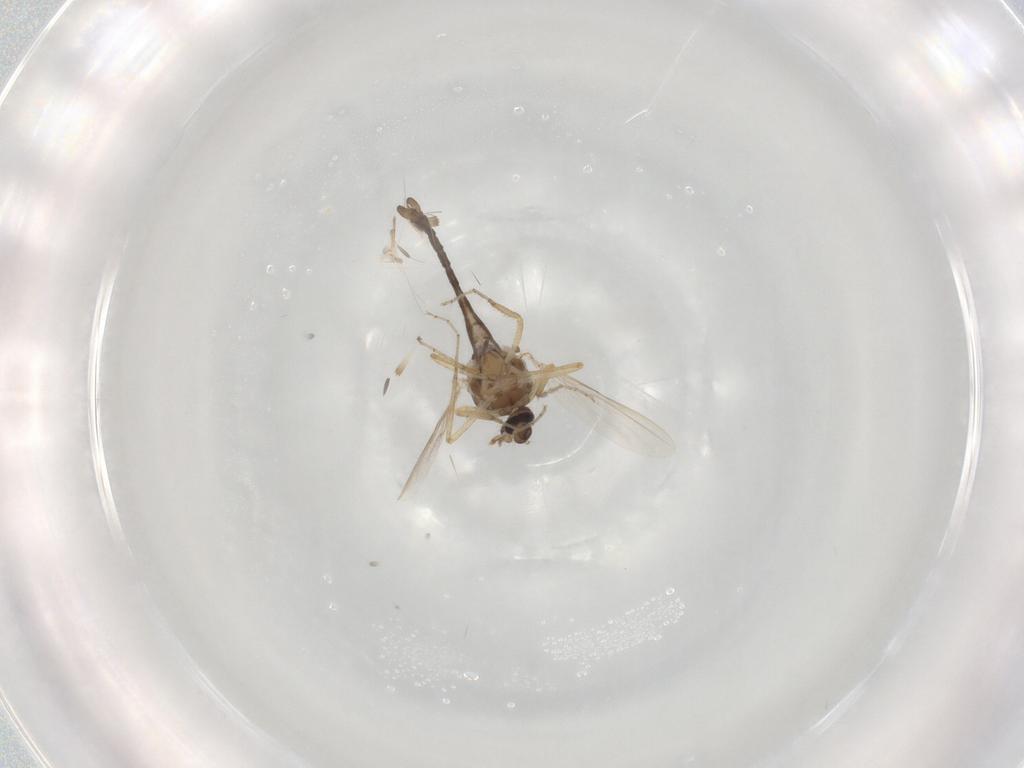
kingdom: Animalia
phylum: Arthropoda
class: Insecta
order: Diptera
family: Ceratopogonidae
